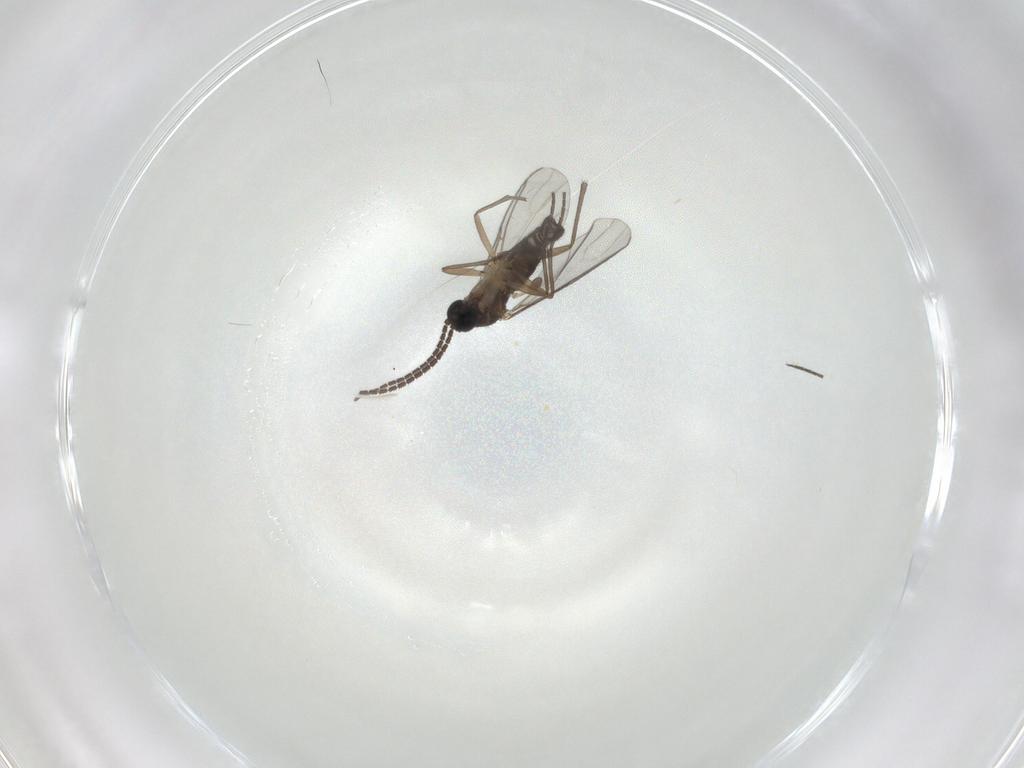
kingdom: Animalia
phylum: Arthropoda
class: Insecta
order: Diptera
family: Sciaridae
